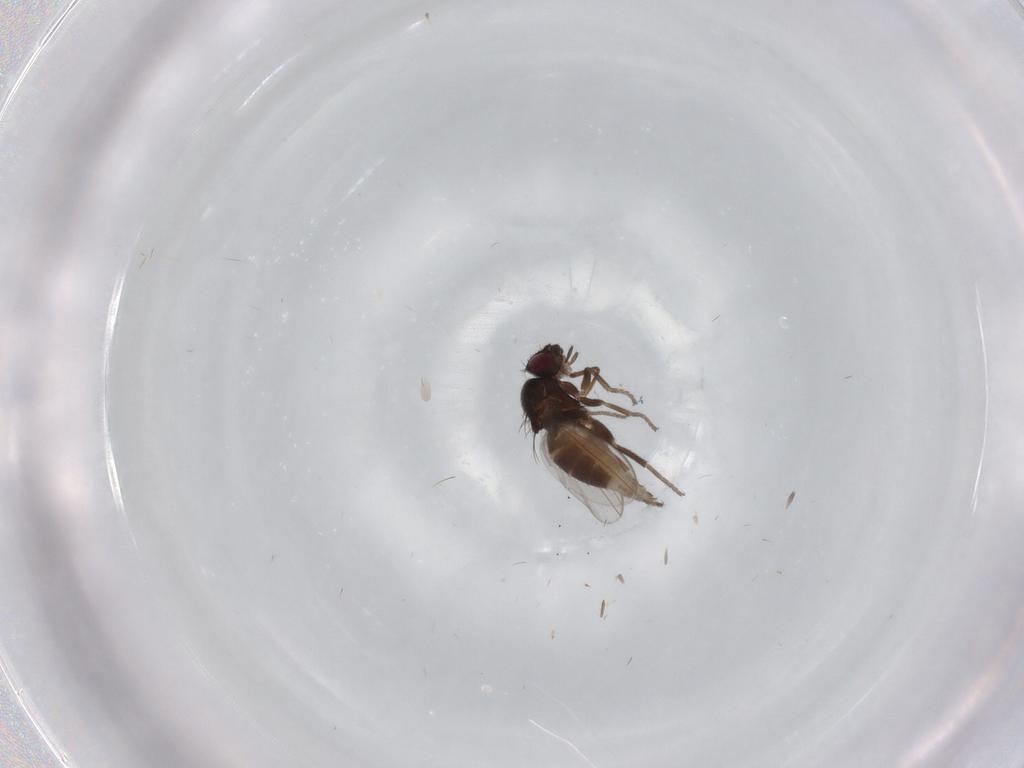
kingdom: Animalia
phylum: Arthropoda
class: Insecta
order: Diptera
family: Milichiidae
